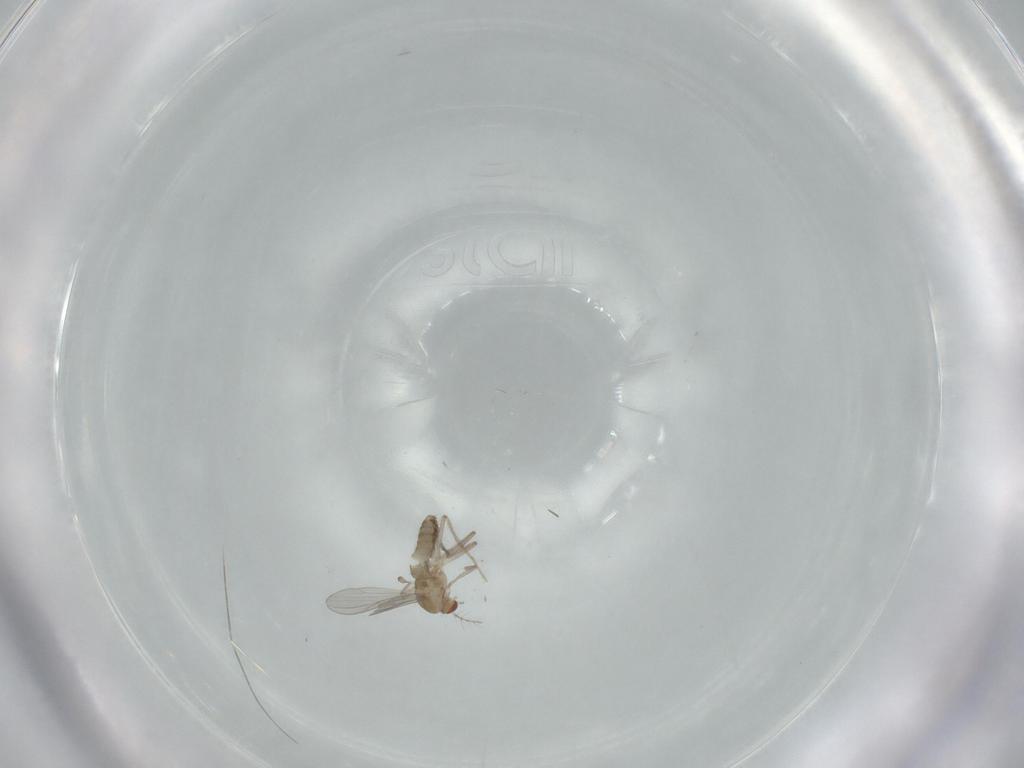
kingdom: Animalia
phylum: Arthropoda
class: Insecta
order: Diptera
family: Chironomidae
